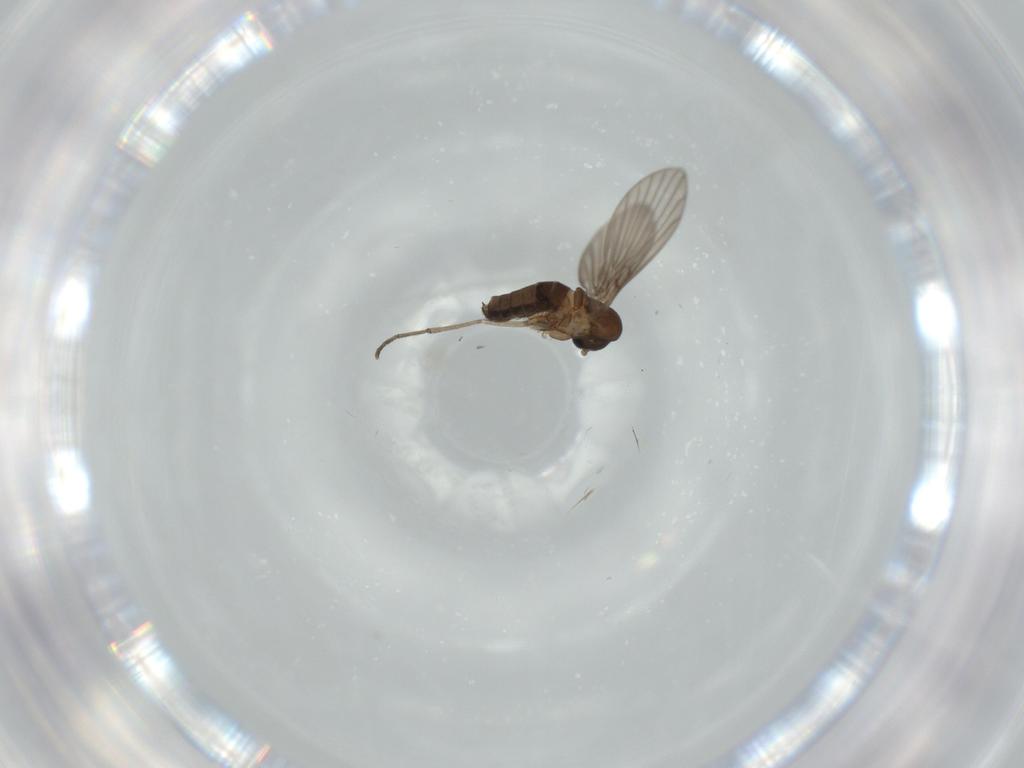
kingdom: Animalia
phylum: Arthropoda
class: Insecta
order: Diptera
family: Psychodidae
